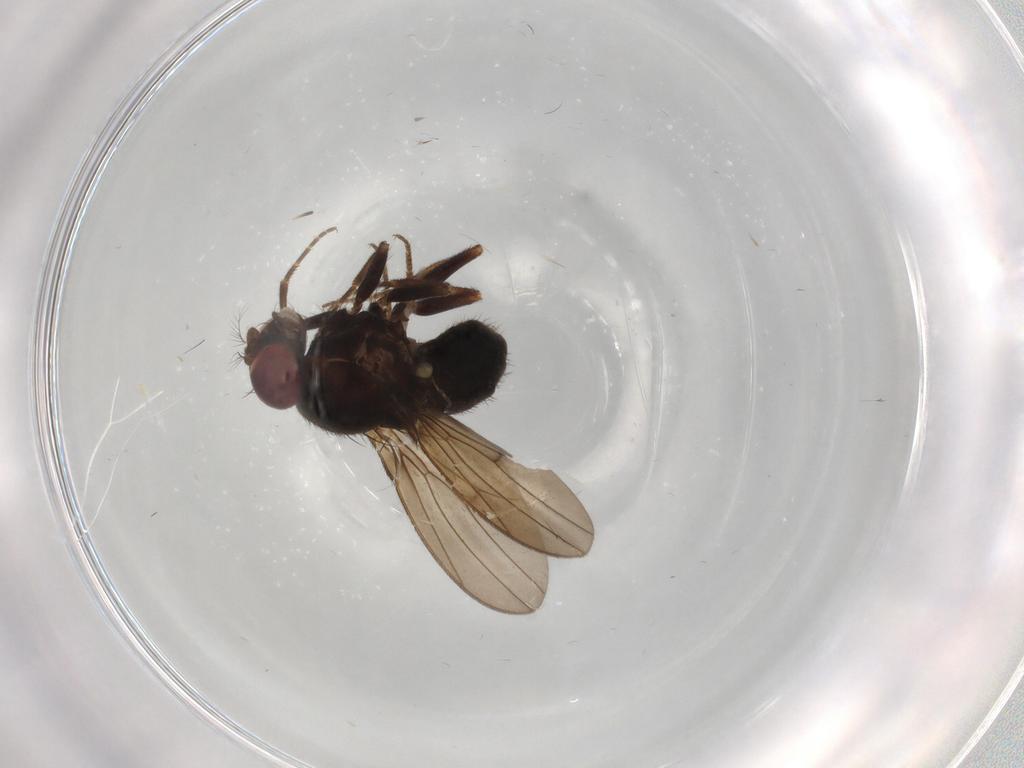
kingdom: Animalia
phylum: Arthropoda
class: Insecta
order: Diptera
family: Drosophilidae
